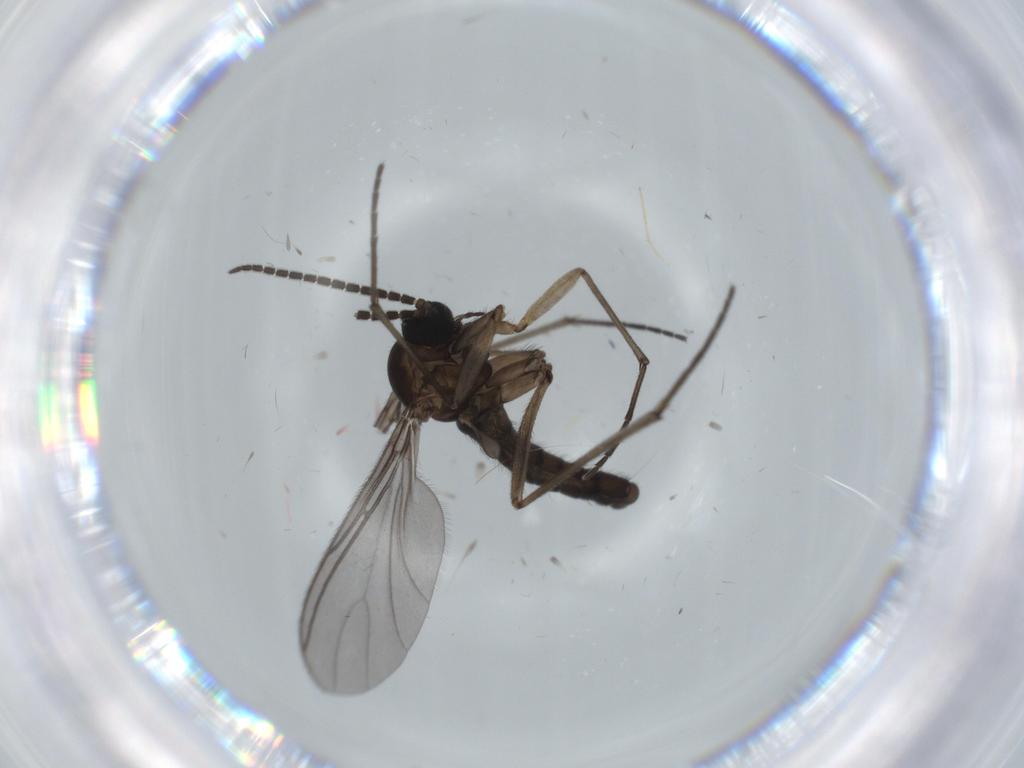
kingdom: Animalia
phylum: Arthropoda
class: Insecta
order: Diptera
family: Sciaridae
